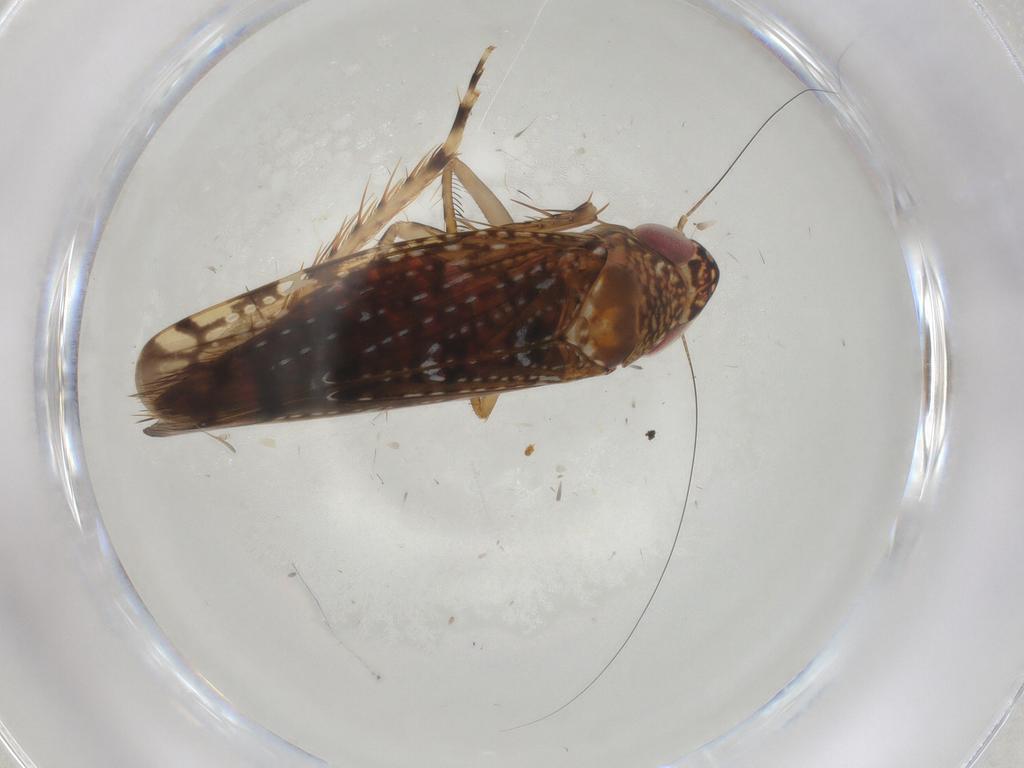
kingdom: Animalia
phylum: Arthropoda
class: Insecta
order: Hemiptera
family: Cicadellidae
